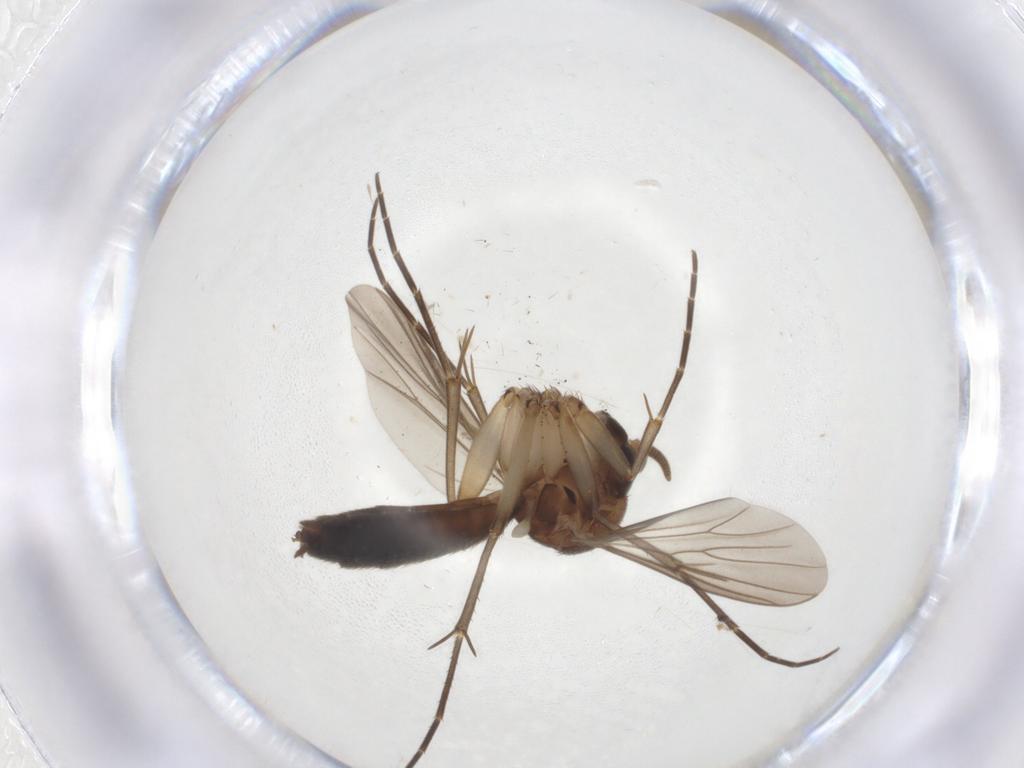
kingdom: Animalia
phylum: Arthropoda
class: Insecta
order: Diptera
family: Mycetophilidae
